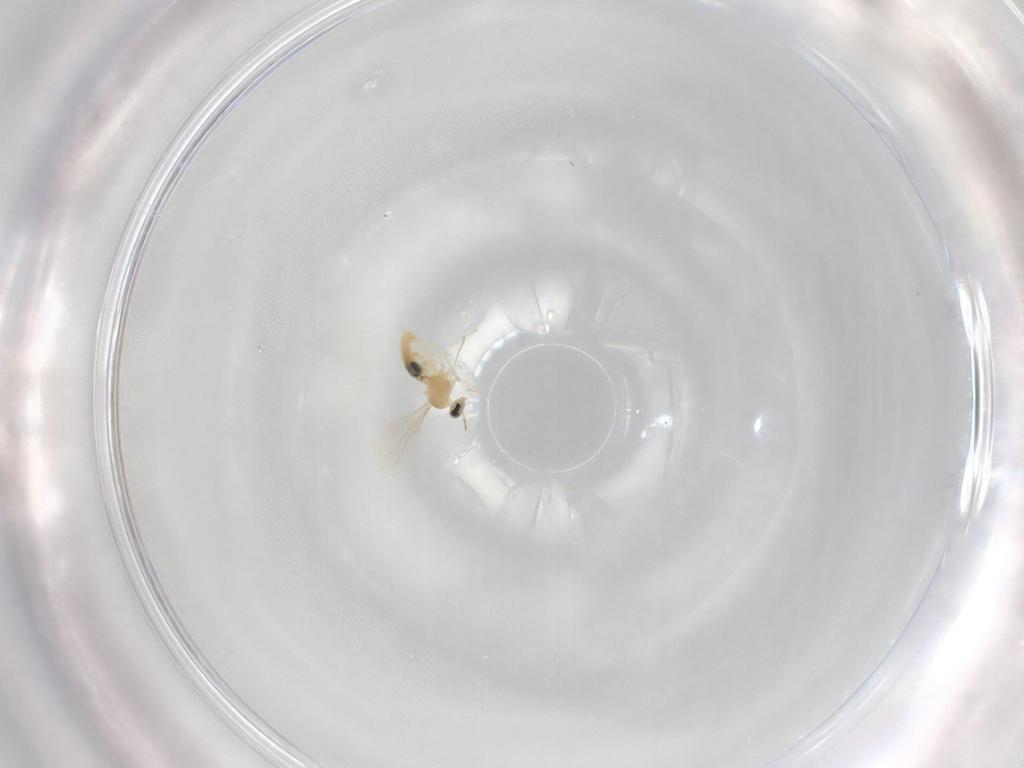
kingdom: Animalia
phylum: Arthropoda
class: Insecta
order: Diptera
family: Cecidomyiidae
